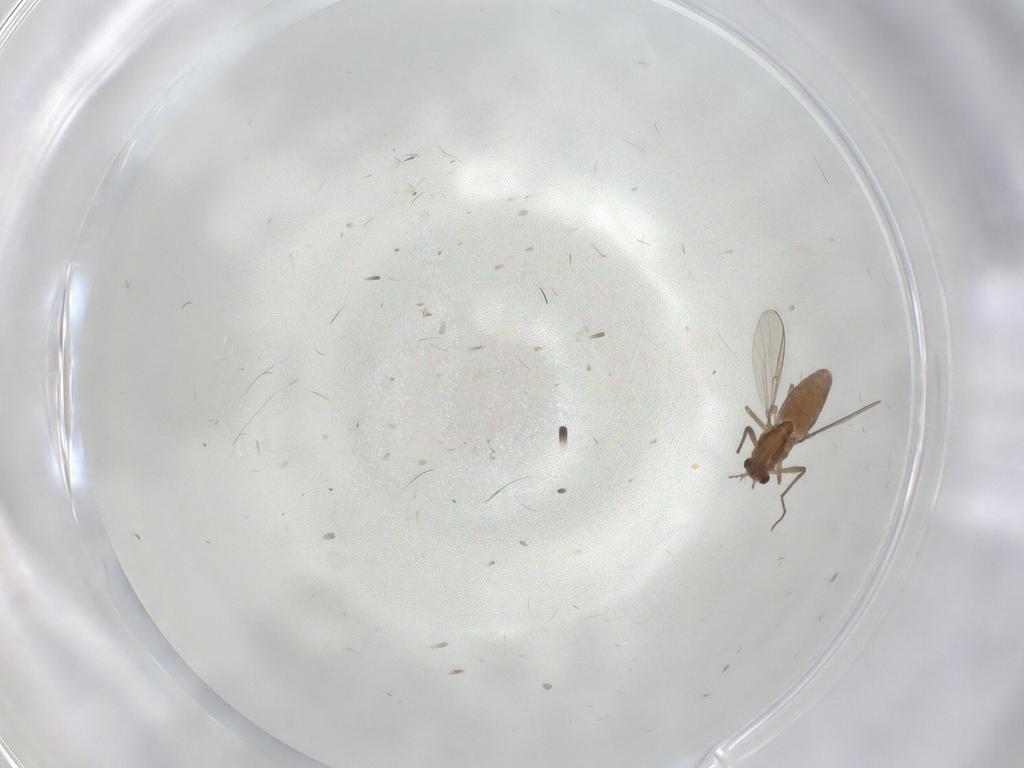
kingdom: Animalia
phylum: Arthropoda
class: Insecta
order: Diptera
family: Chironomidae
